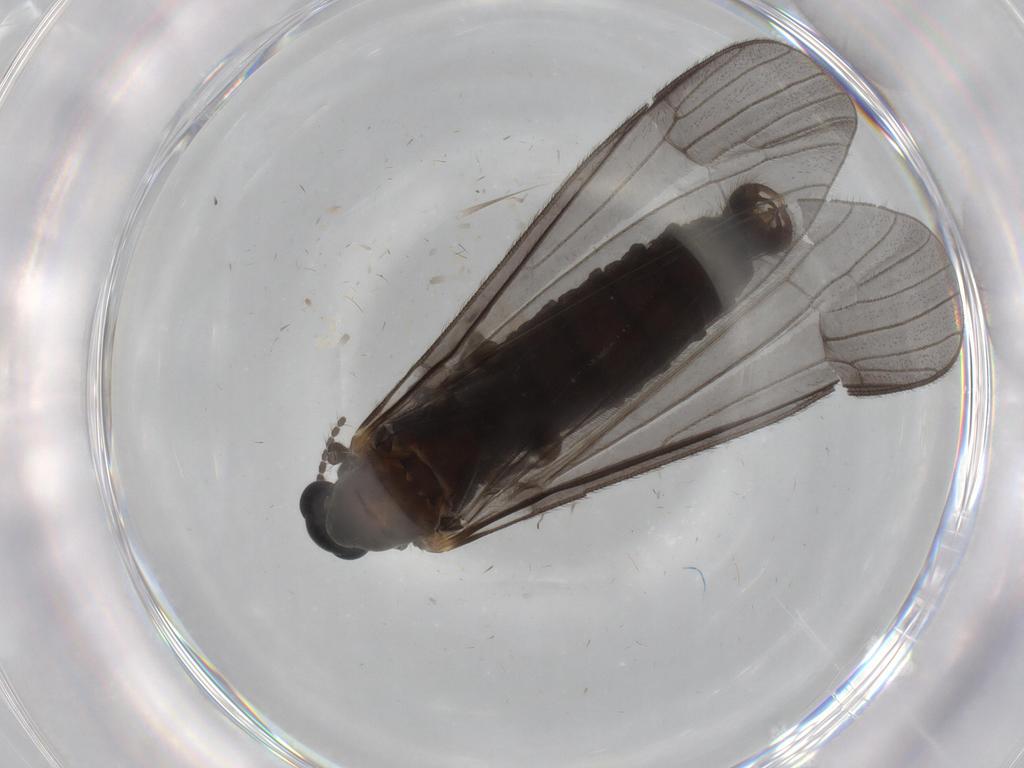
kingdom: Animalia
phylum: Arthropoda
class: Insecta
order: Diptera
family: Limoniidae
